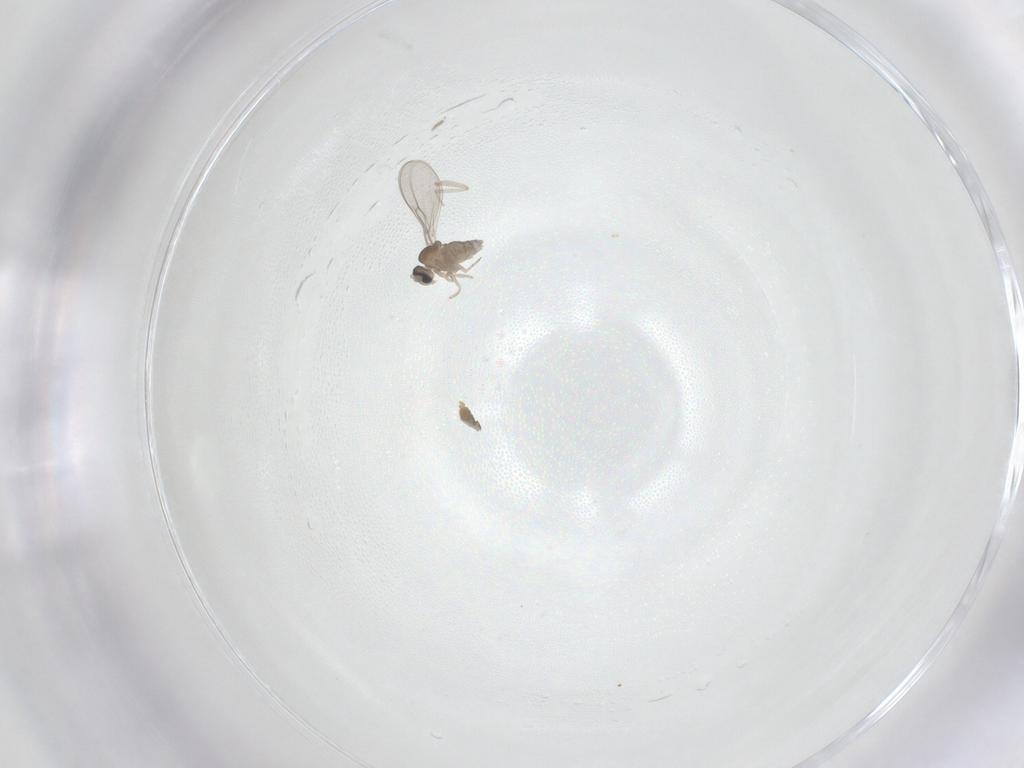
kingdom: Animalia
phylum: Arthropoda
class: Insecta
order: Diptera
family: Cecidomyiidae
